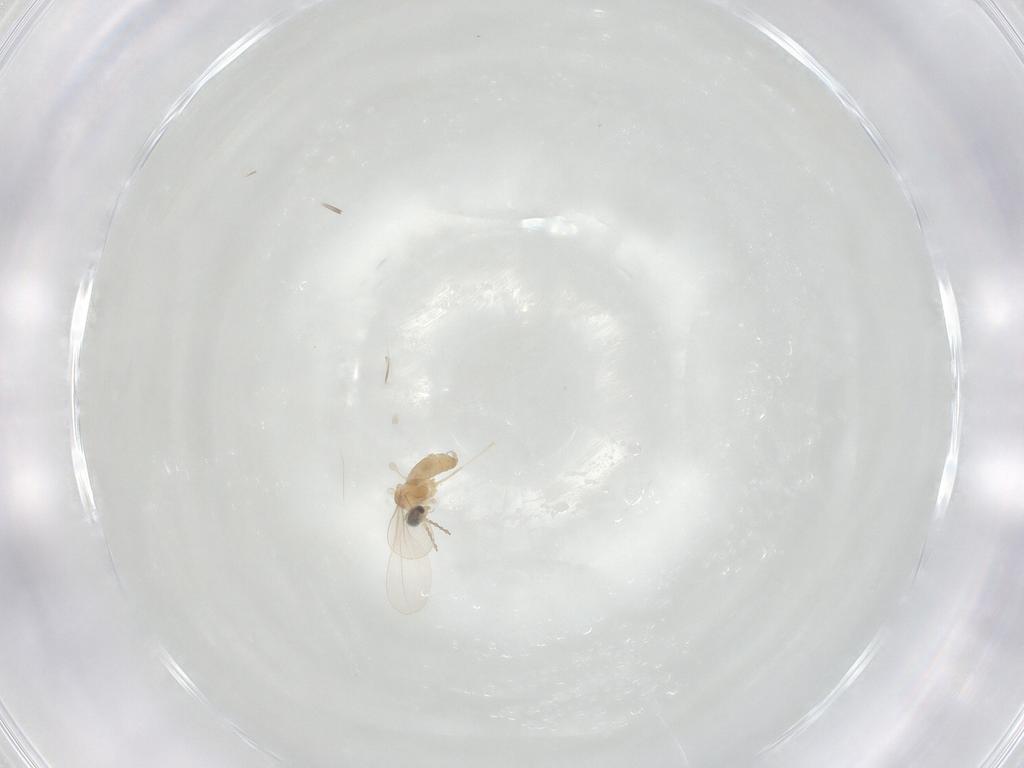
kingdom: Animalia
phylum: Arthropoda
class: Insecta
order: Diptera
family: Cecidomyiidae
